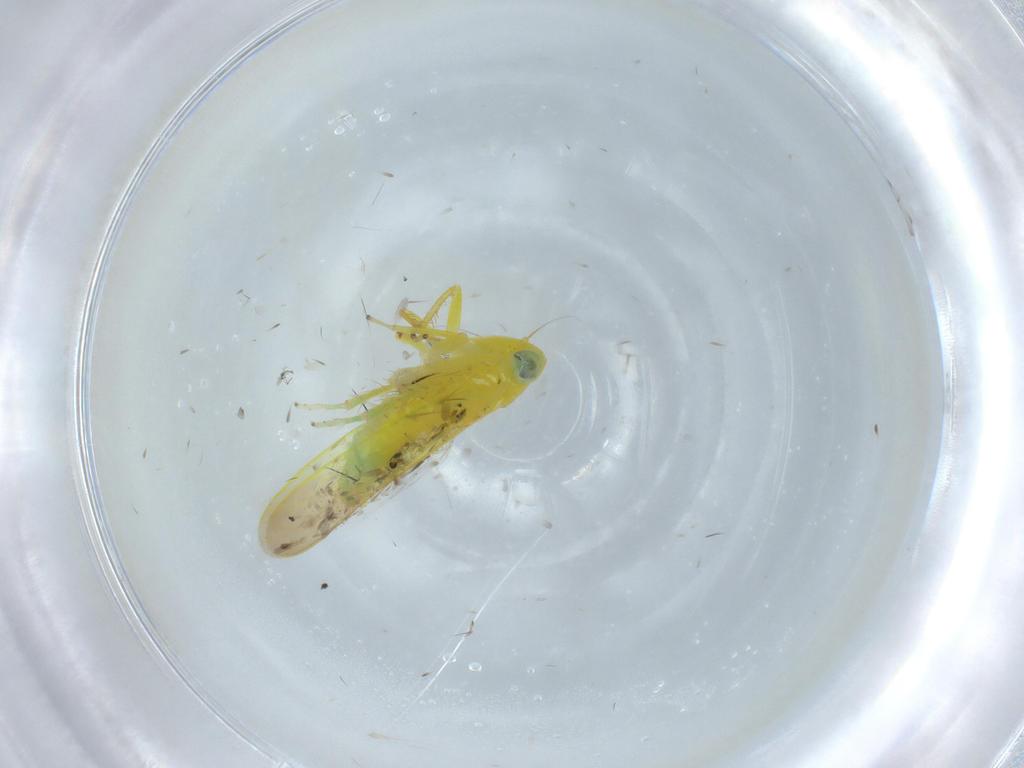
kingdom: Animalia
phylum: Arthropoda
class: Insecta
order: Hemiptera
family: Cicadellidae
